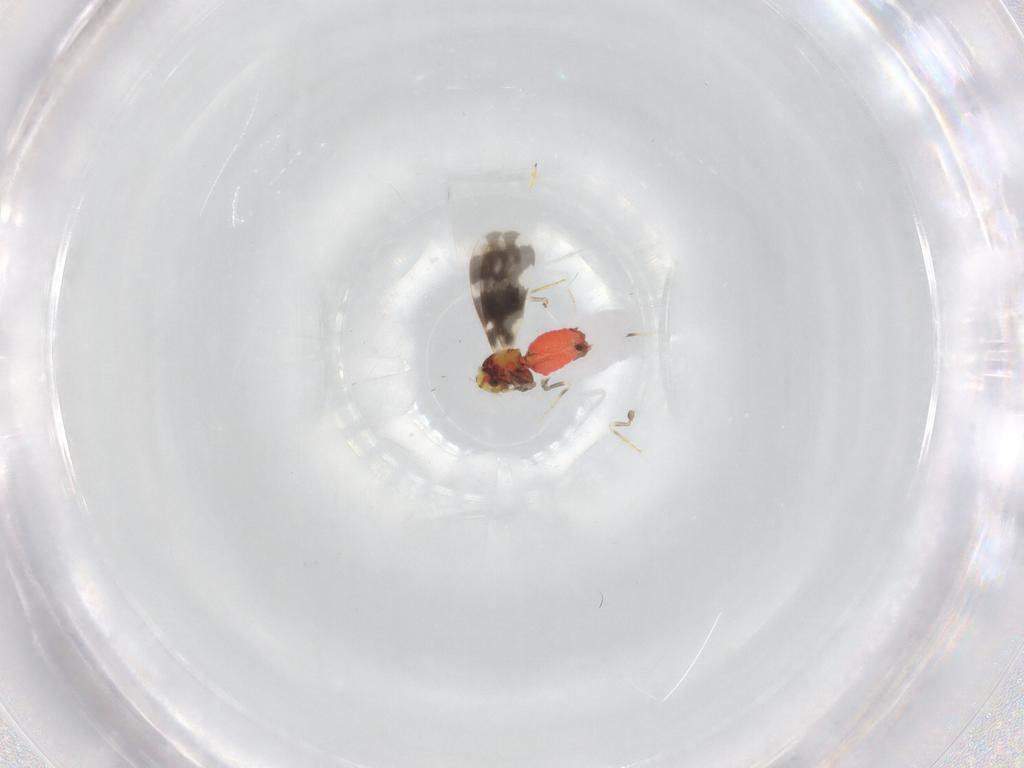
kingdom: Animalia
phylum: Arthropoda
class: Insecta
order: Hemiptera
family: Aleyrodidae
